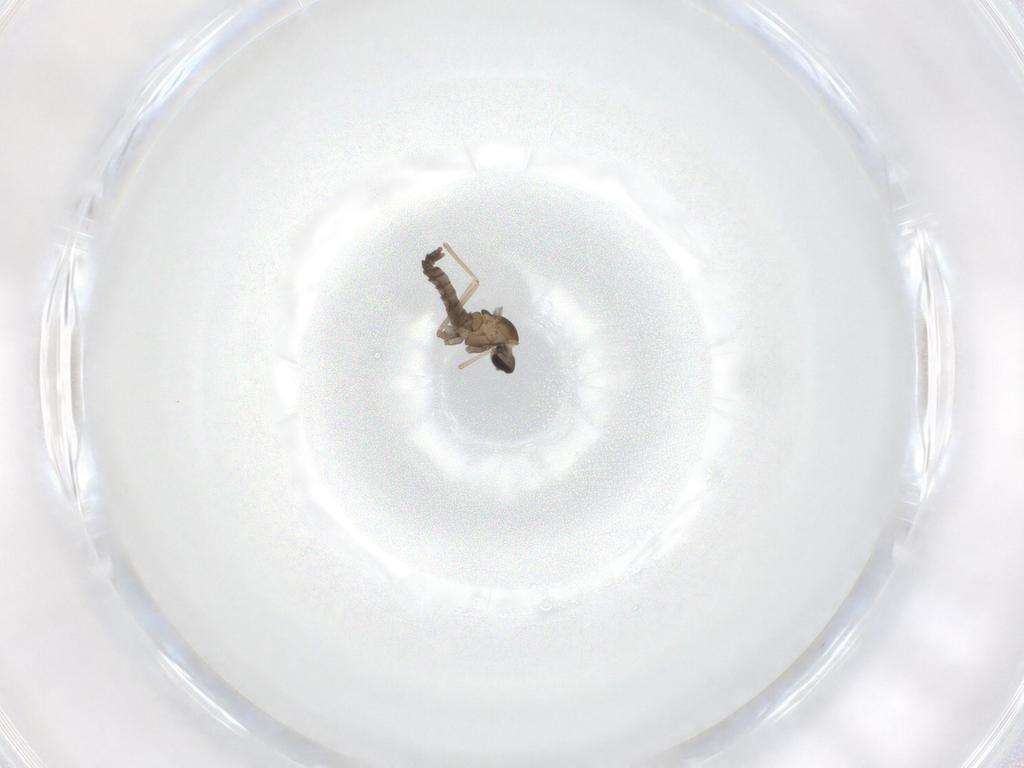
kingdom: Animalia
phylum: Arthropoda
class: Insecta
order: Diptera
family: Cecidomyiidae
